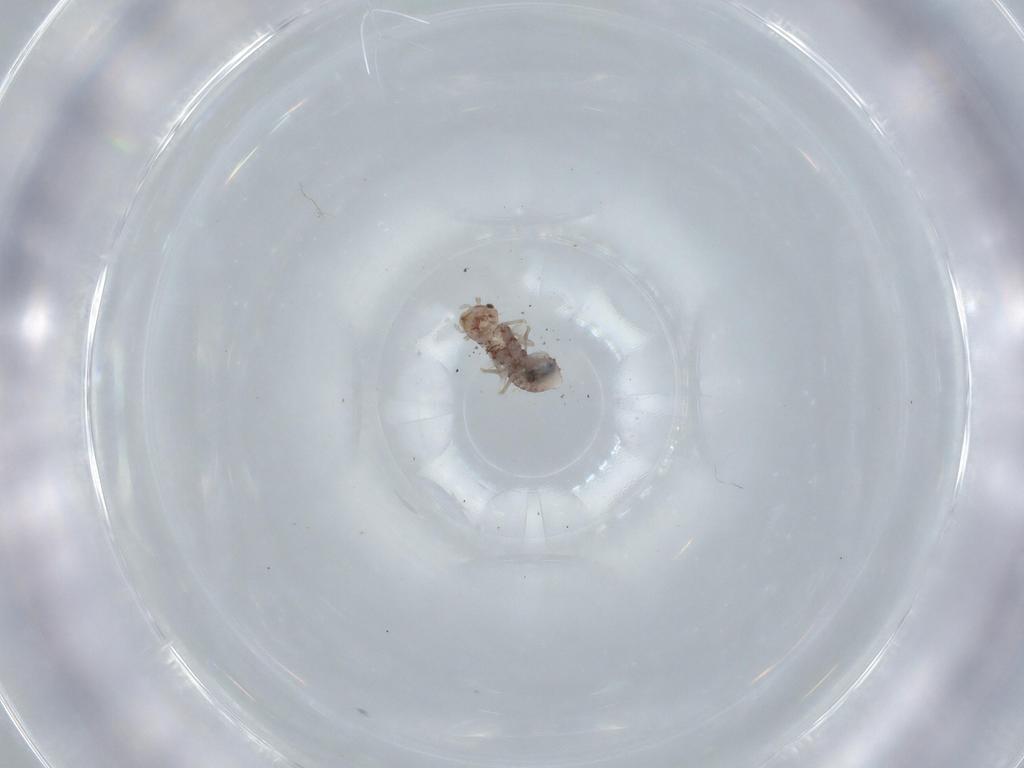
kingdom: Animalia
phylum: Arthropoda
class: Insecta
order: Psocodea
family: Ectopsocidae
